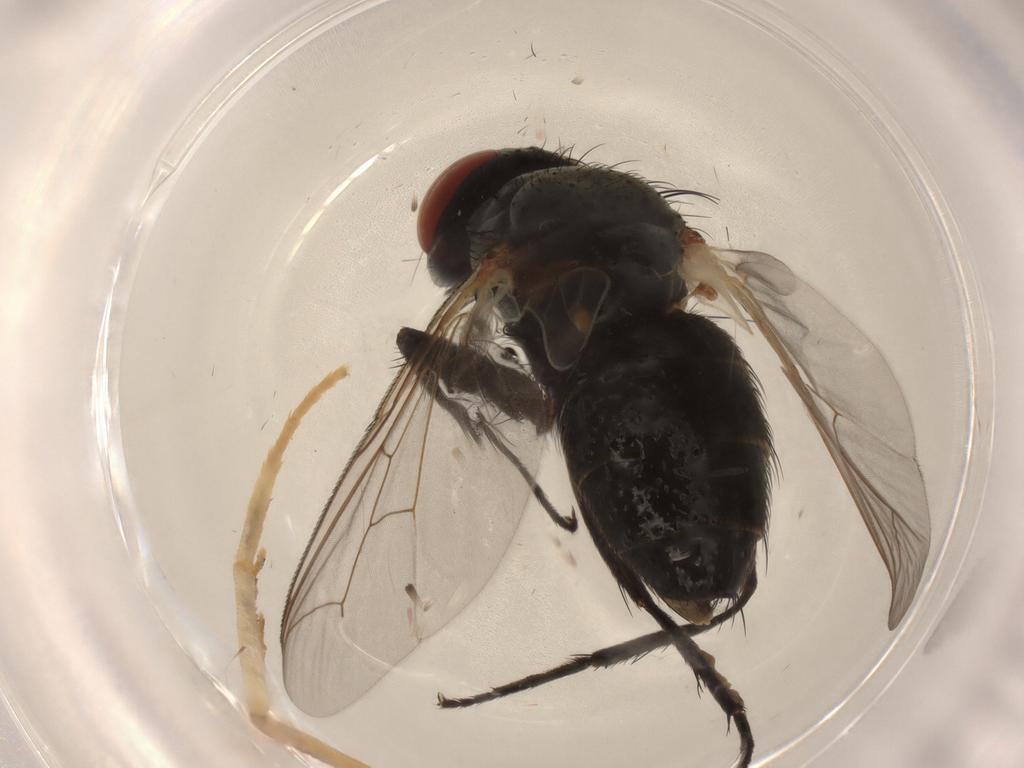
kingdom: Animalia
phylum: Arthropoda
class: Insecta
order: Diptera
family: Sarcophagidae
